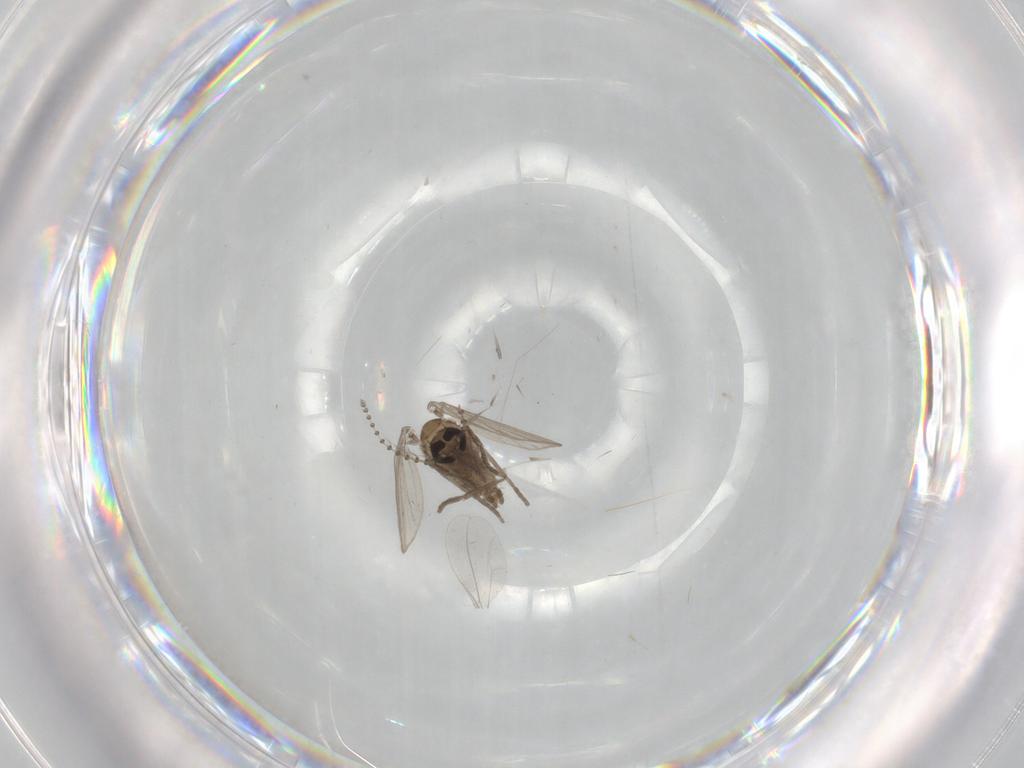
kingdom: Animalia
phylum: Arthropoda
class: Insecta
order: Diptera
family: Psychodidae
